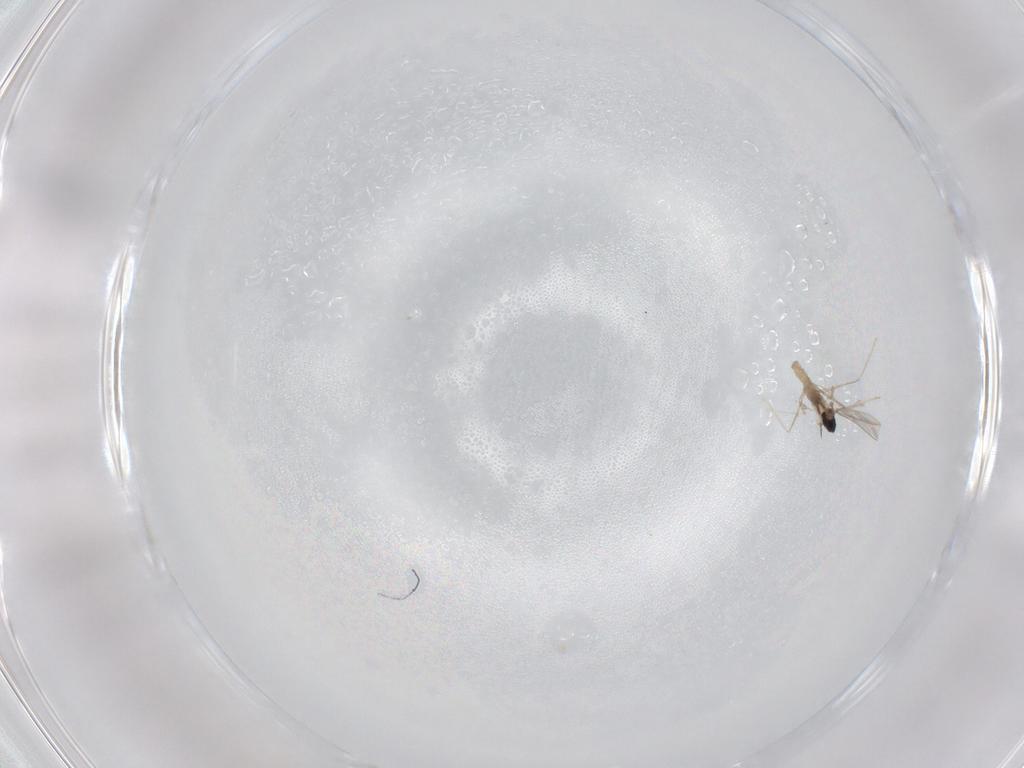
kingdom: Animalia
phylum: Arthropoda
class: Insecta
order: Diptera
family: Cecidomyiidae
